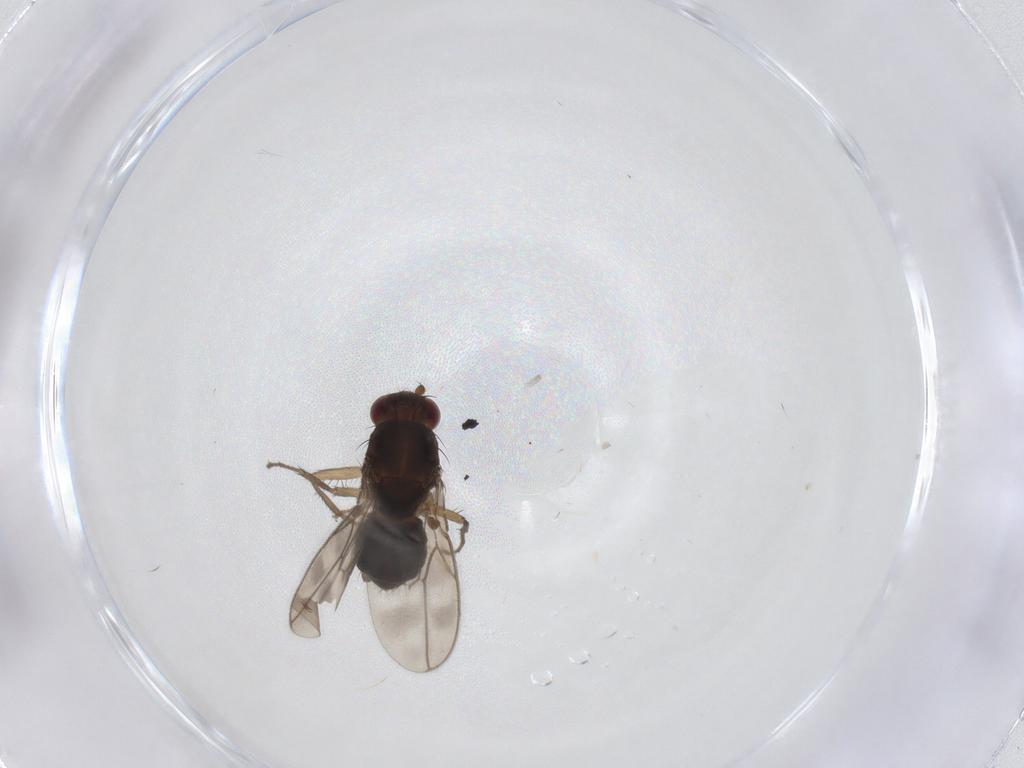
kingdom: Animalia
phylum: Arthropoda
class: Insecta
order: Diptera
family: Sphaeroceridae
